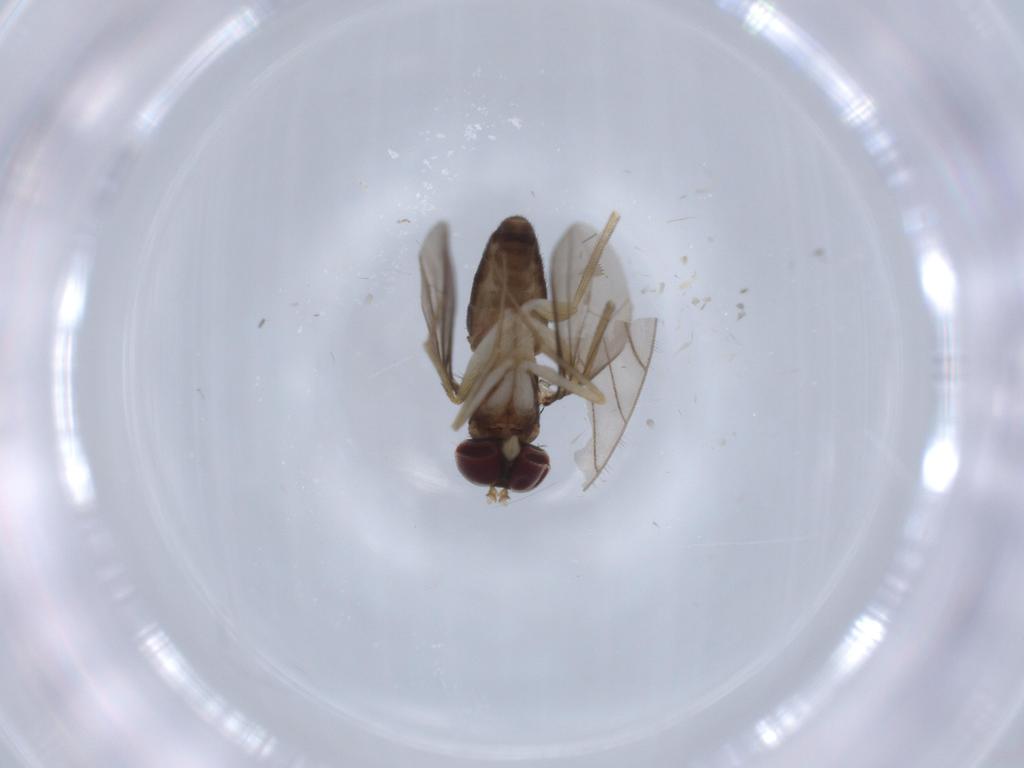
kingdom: Animalia
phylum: Arthropoda
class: Insecta
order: Diptera
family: Dolichopodidae
